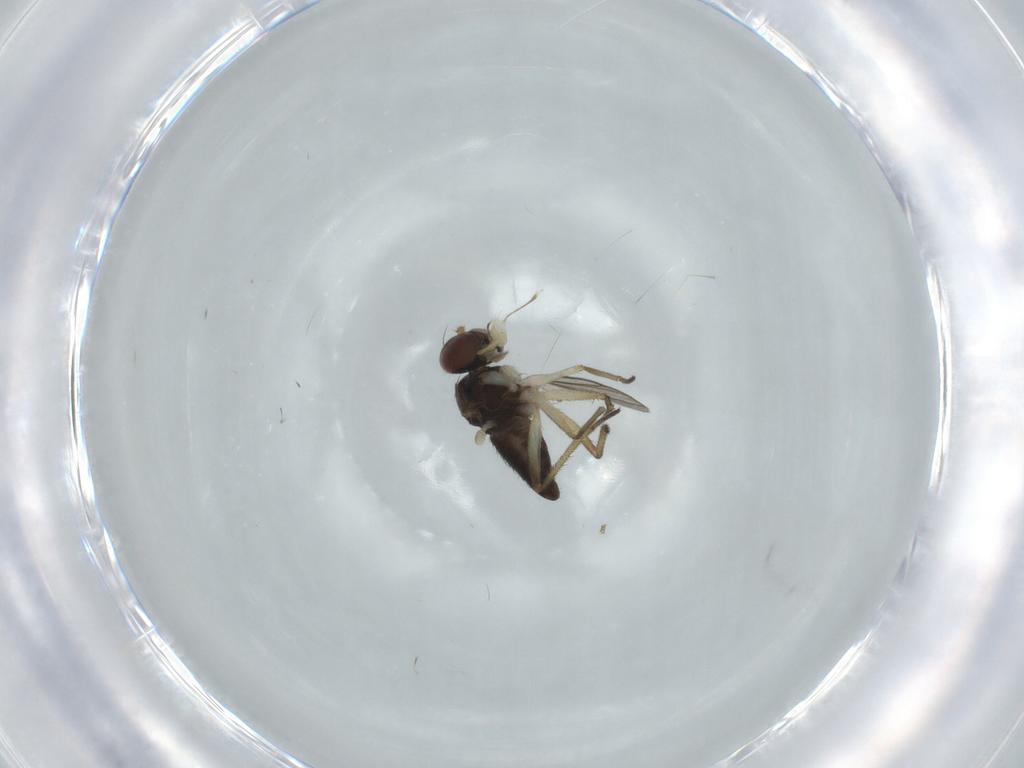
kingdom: Animalia
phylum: Arthropoda
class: Insecta
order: Diptera
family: Dolichopodidae
